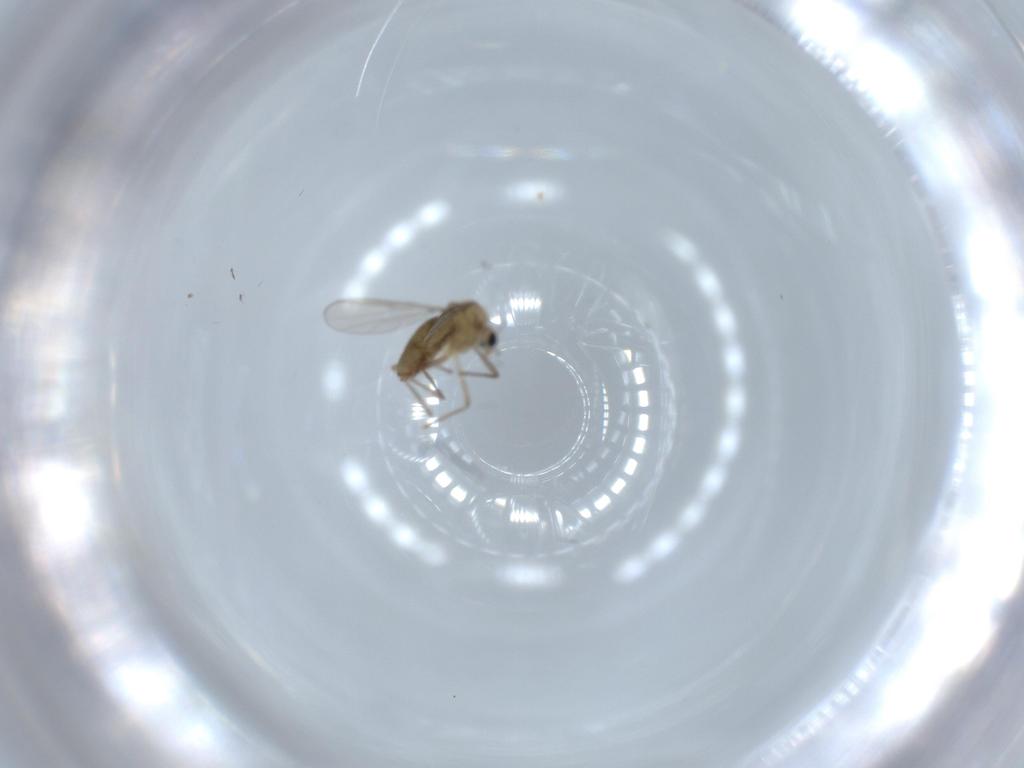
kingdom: Animalia
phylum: Arthropoda
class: Insecta
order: Diptera
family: Chironomidae
